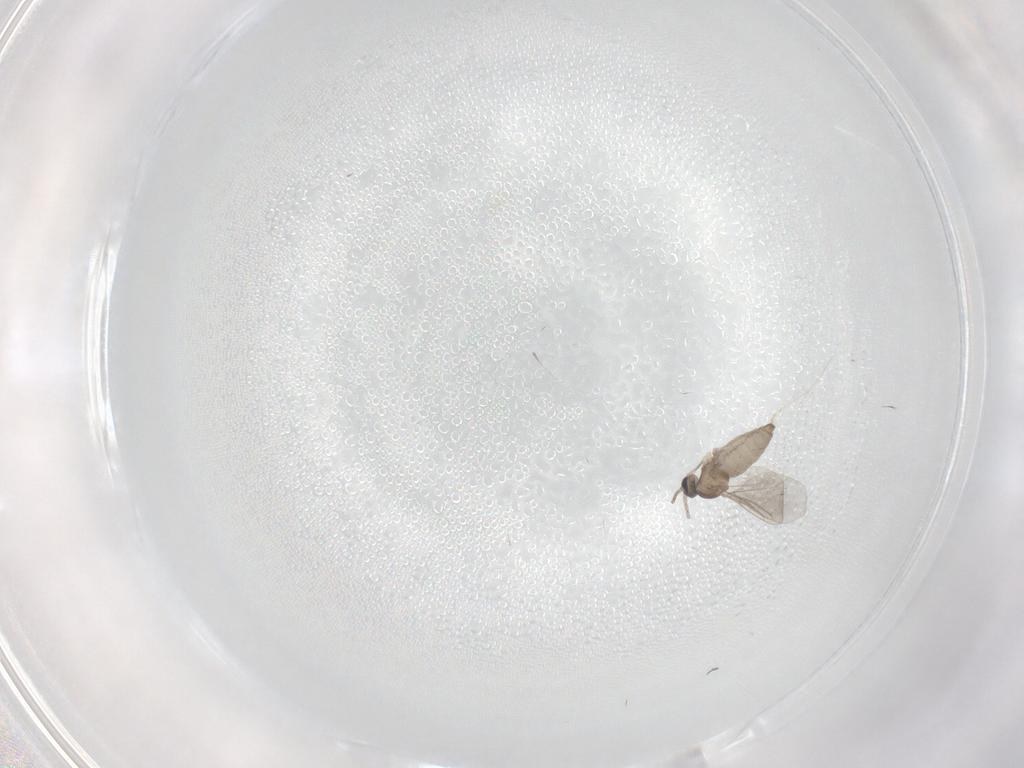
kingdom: Animalia
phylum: Arthropoda
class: Insecta
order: Diptera
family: Cecidomyiidae
